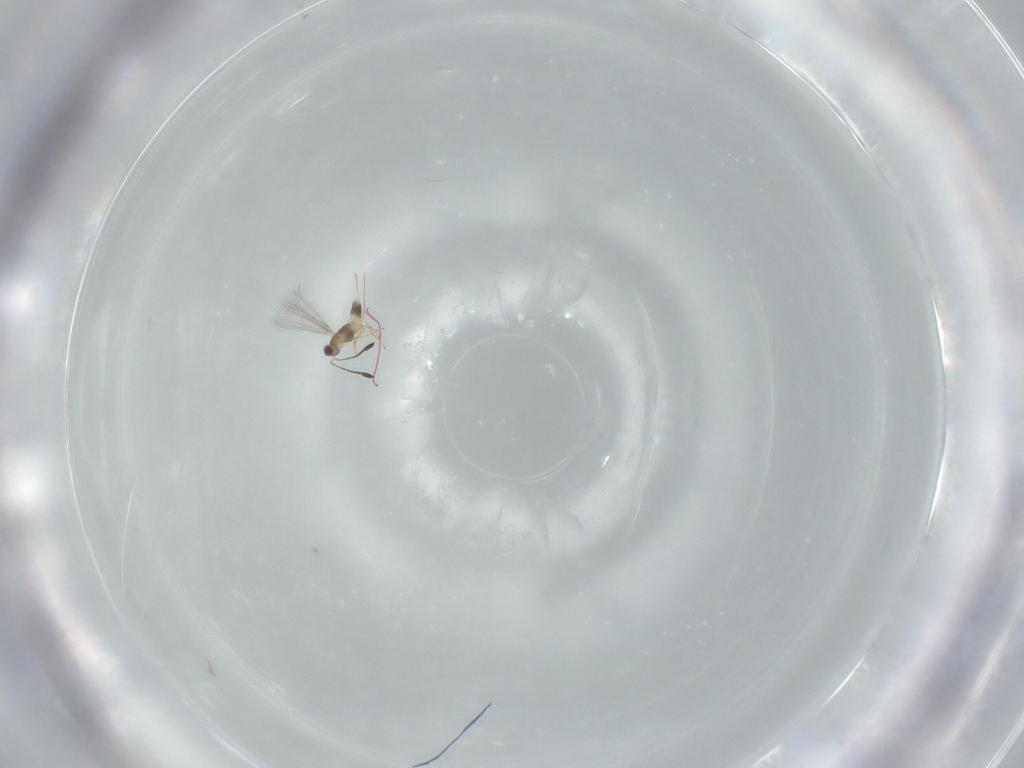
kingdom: Animalia
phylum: Arthropoda
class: Insecta
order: Hymenoptera
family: Mymaridae
